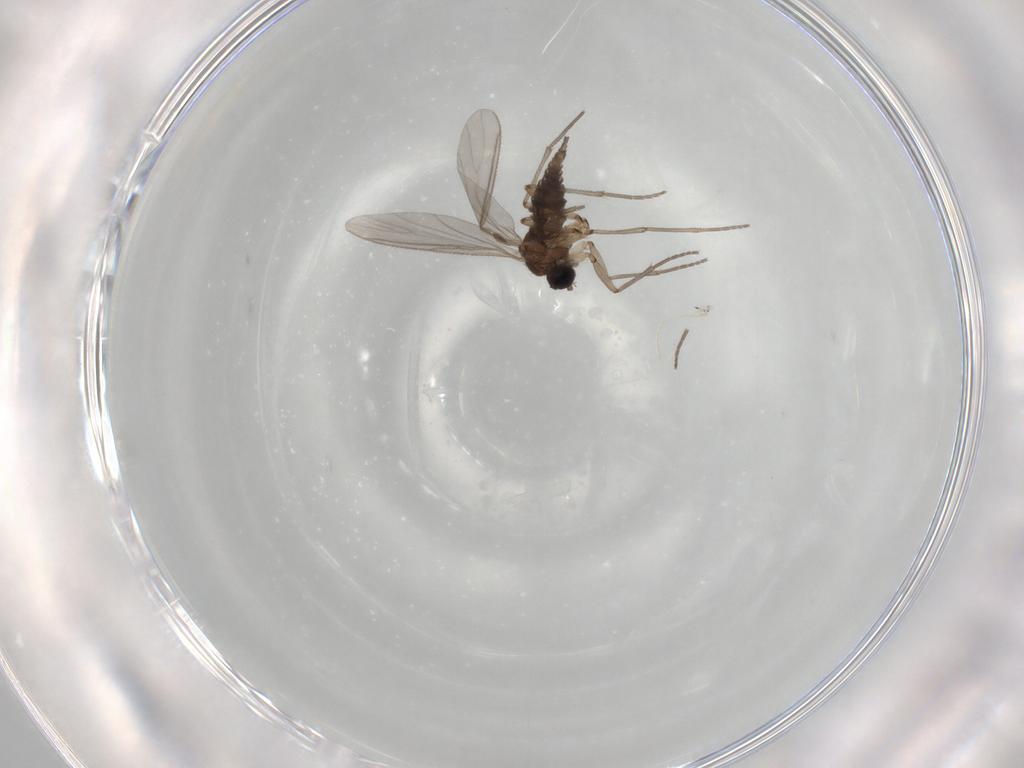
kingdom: Animalia
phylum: Arthropoda
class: Insecta
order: Diptera
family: Sciaridae
